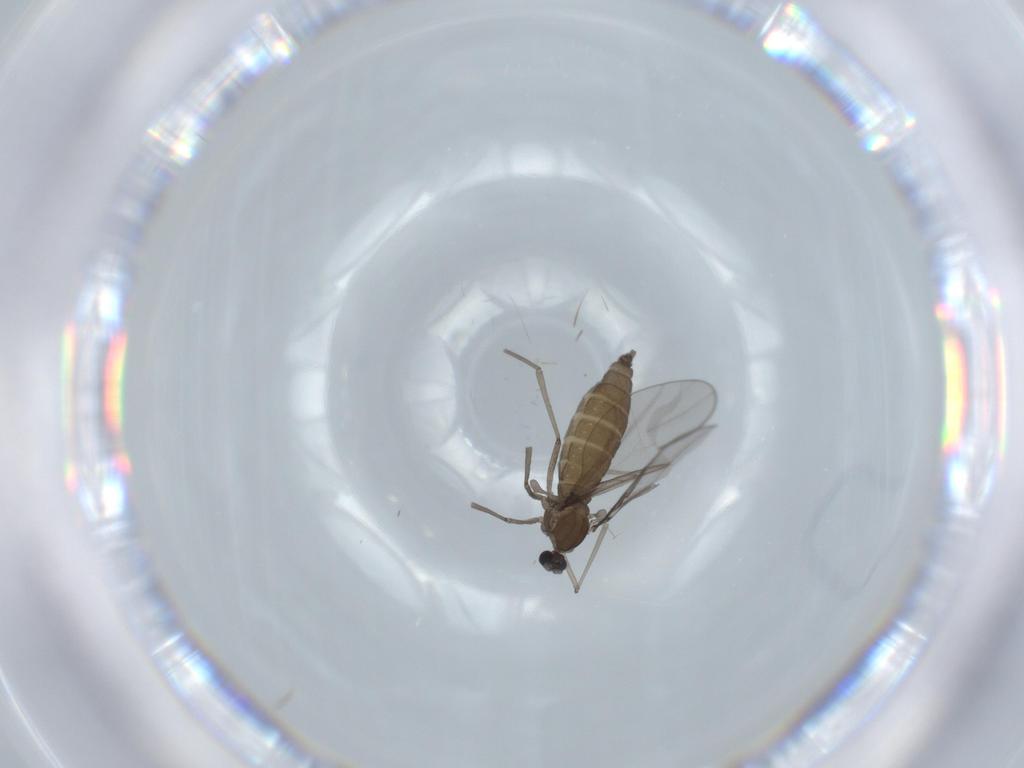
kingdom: Animalia
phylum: Arthropoda
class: Insecta
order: Diptera
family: Cecidomyiidae
